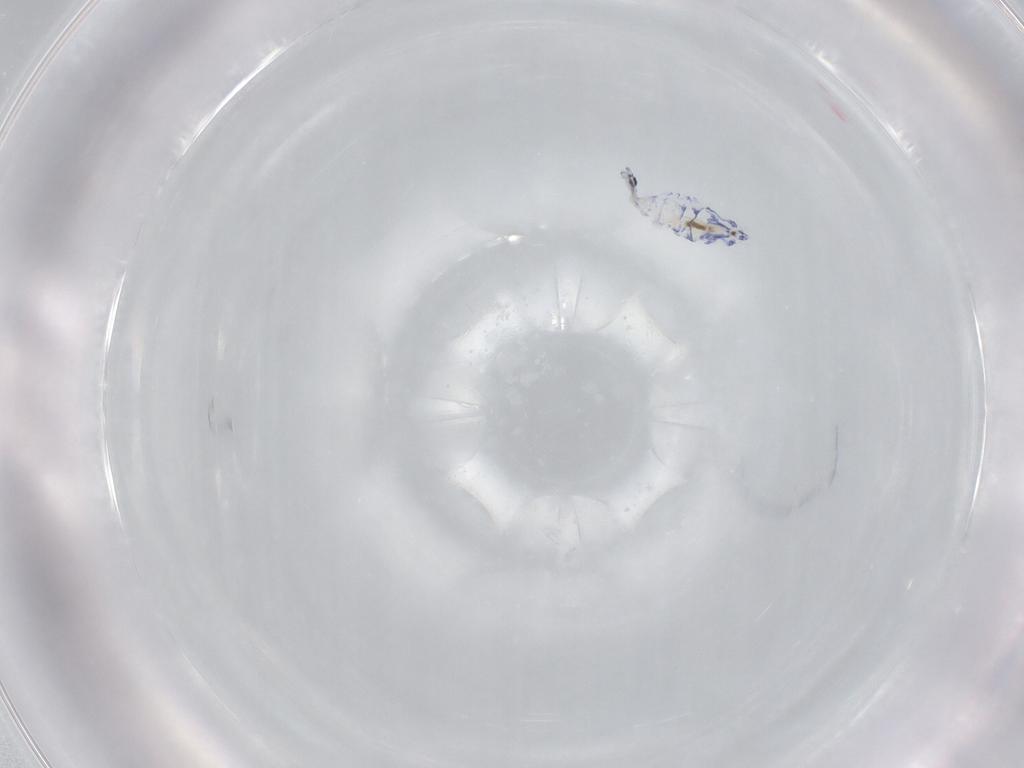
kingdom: Animalia
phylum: Arthropoda
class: Collembola
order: Entomobryomorpha
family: Entomobryidae
